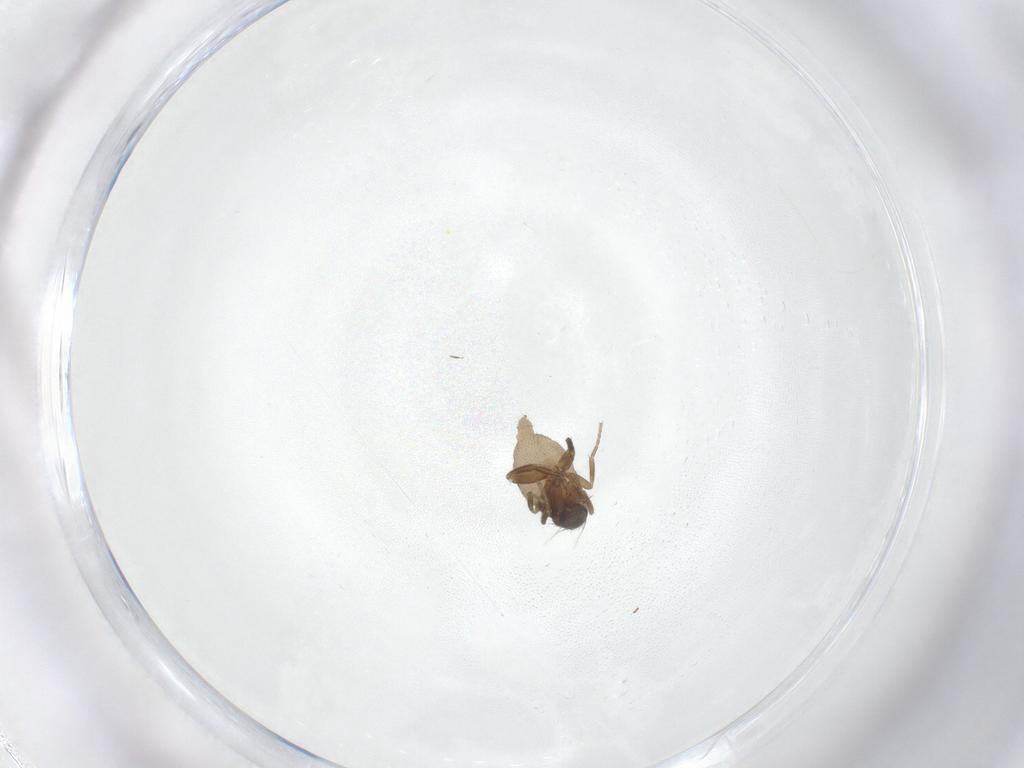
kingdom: Animalia
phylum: Arthropoda
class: Insecta
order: Diptera
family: Phoridae
